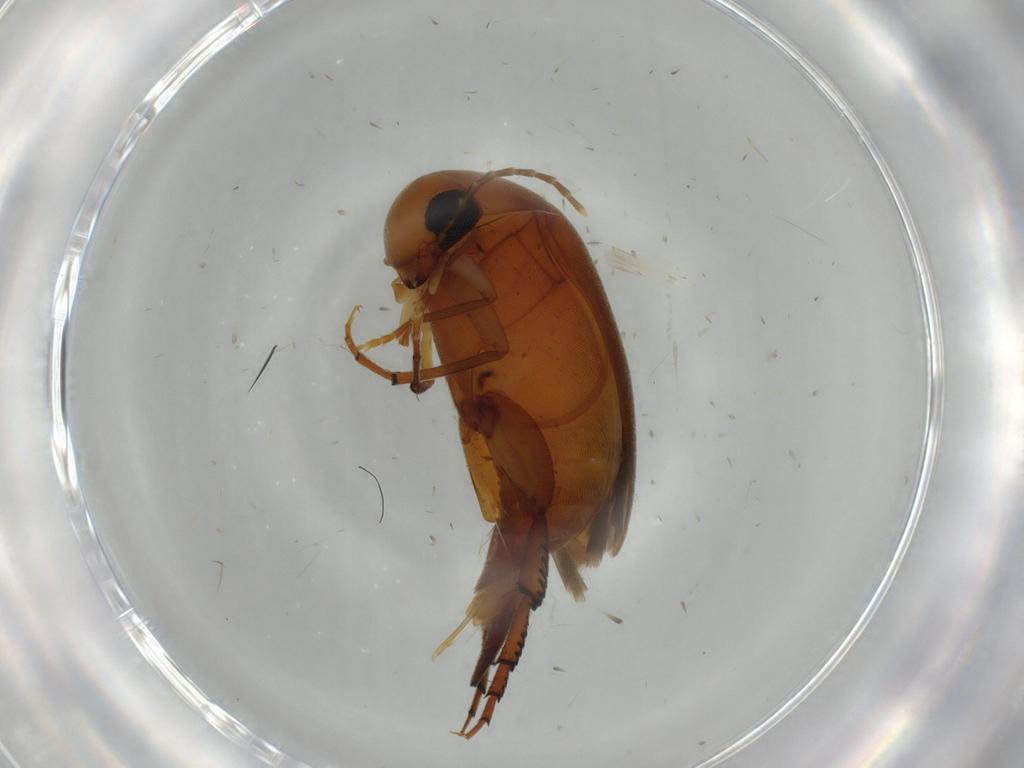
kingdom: Animalia
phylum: Arthropoda
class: Insecta
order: Coleoptera
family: Mordellidae
